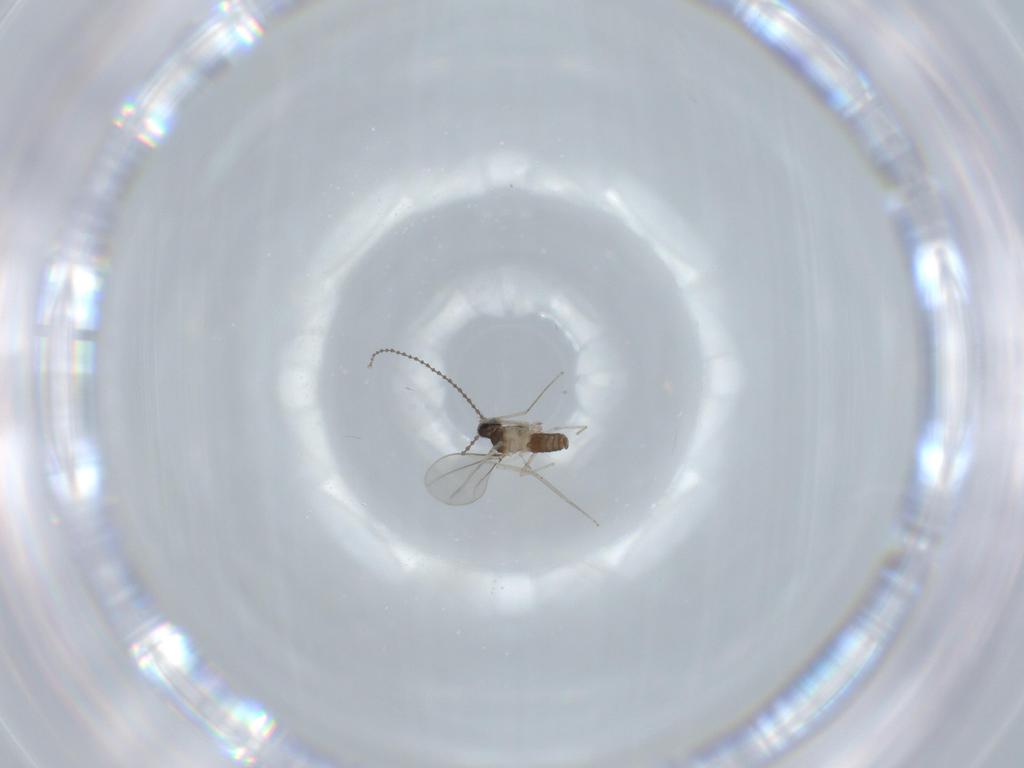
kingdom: Animalia
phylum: Arthropoda
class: Insecta
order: Diptera
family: Cecidomyiidae
